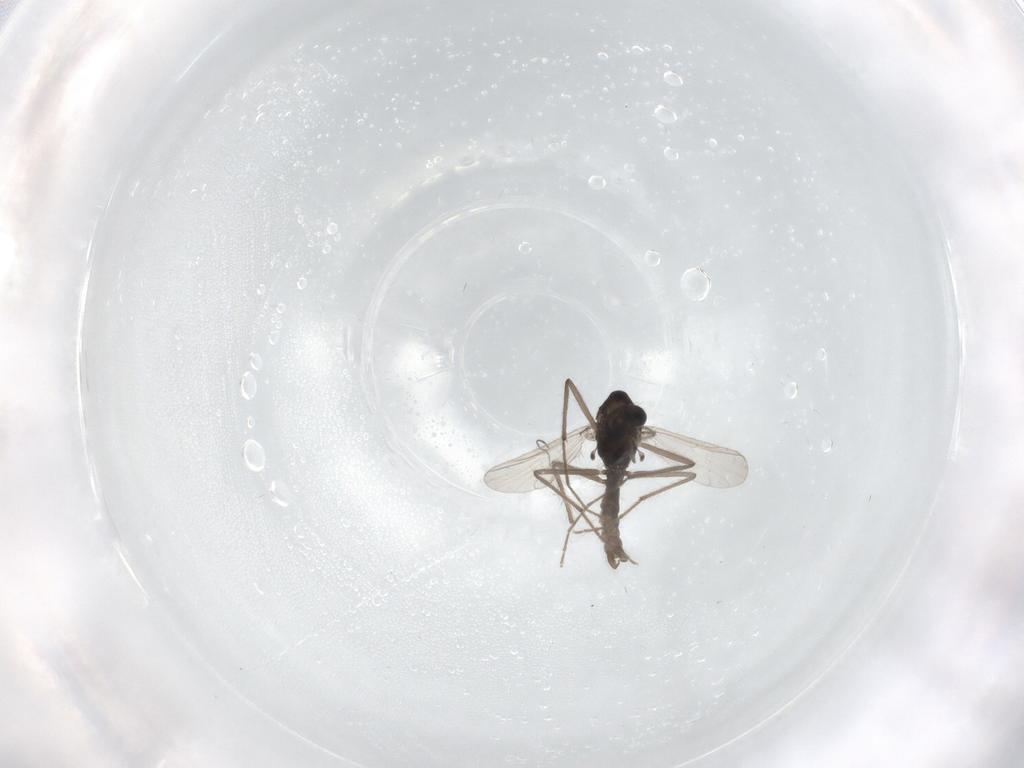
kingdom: Animalia
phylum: Arthropoda
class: Insecta
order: Diptera
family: Chironomidae
